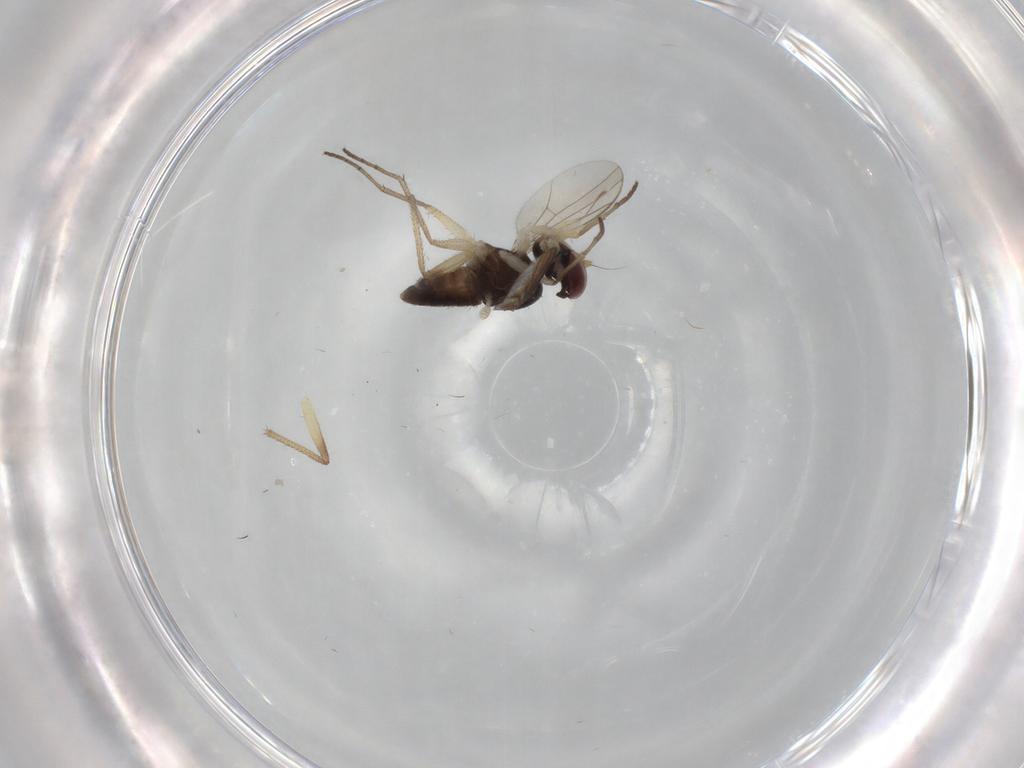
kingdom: Animalia
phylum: Arthropoda
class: Insecta
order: Diptera
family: Dolichopodidae
